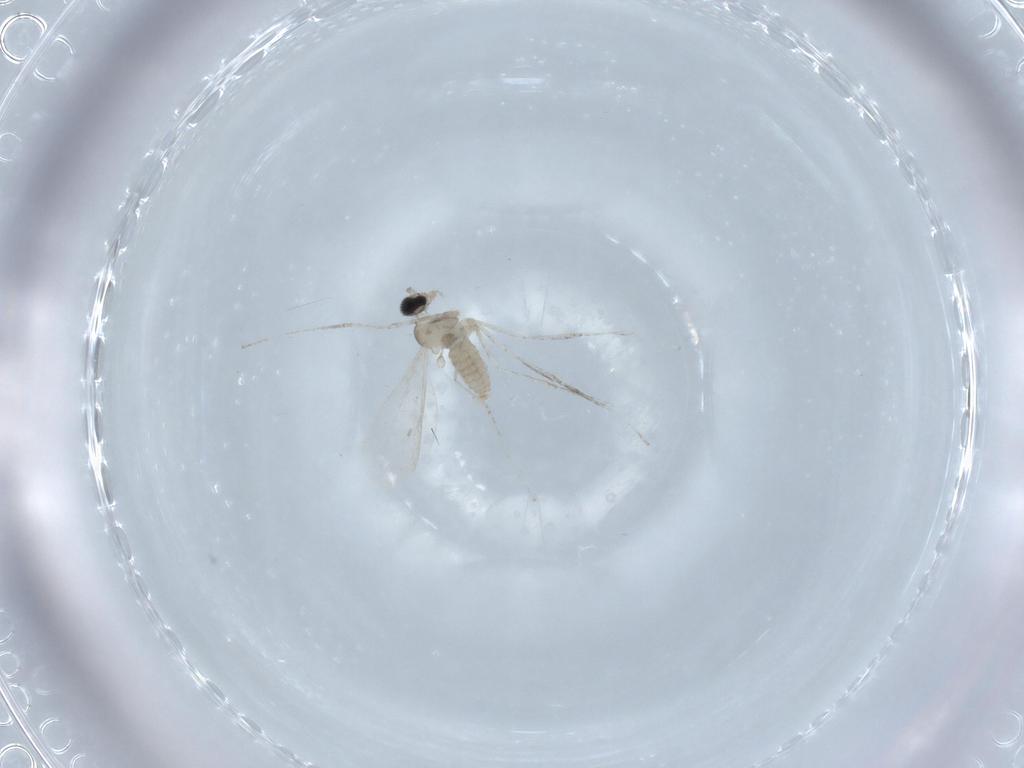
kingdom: Animalia
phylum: Arthropoda
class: Insecta
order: Diptera
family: Cecidomyiidae
